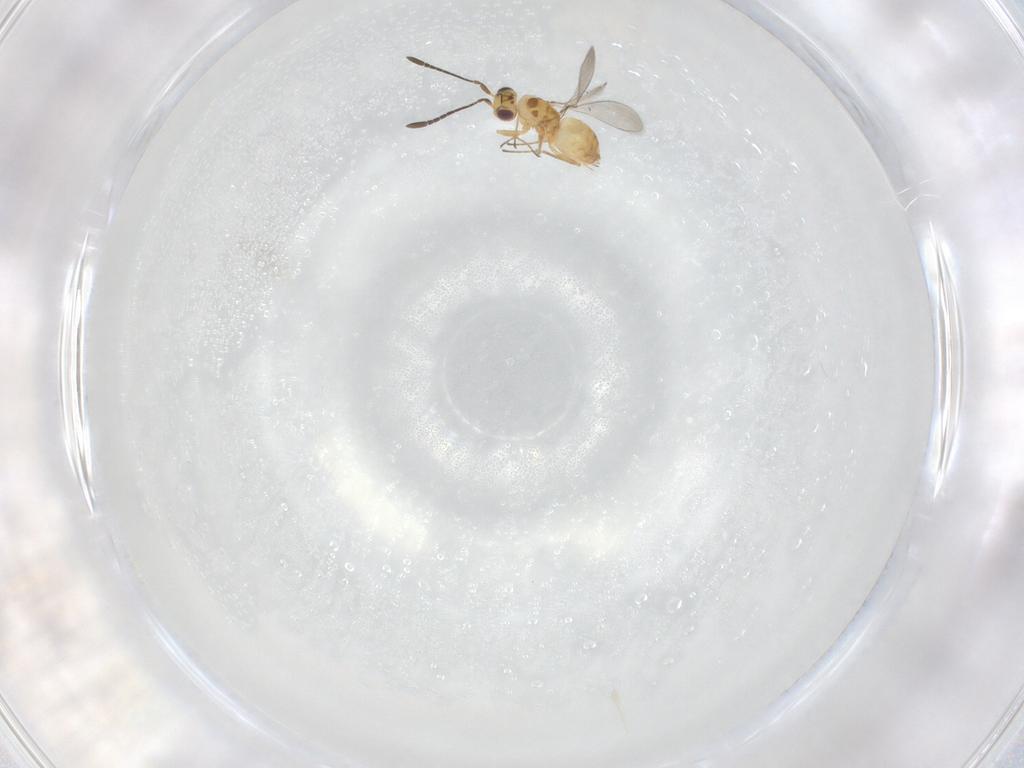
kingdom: Animalia
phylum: Arthropoda
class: Insecta
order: Hymenoptera
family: Mymaridae
